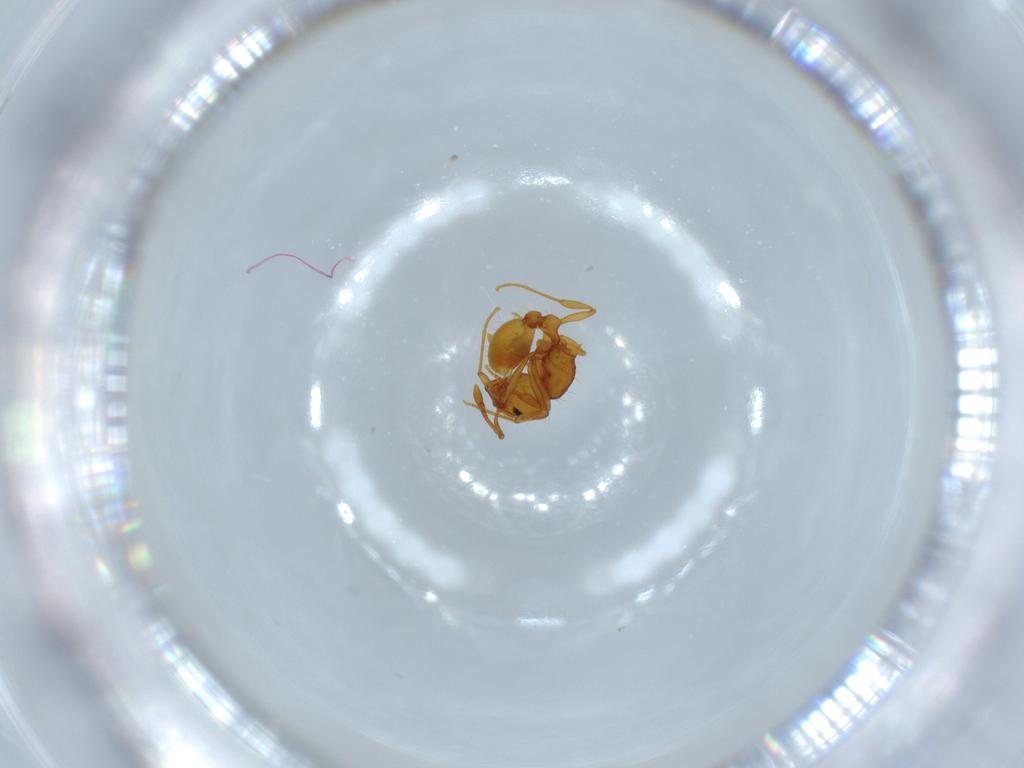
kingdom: Animalia
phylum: Arthropoda
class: Insecta
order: Hymenoptera
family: Formicidae
